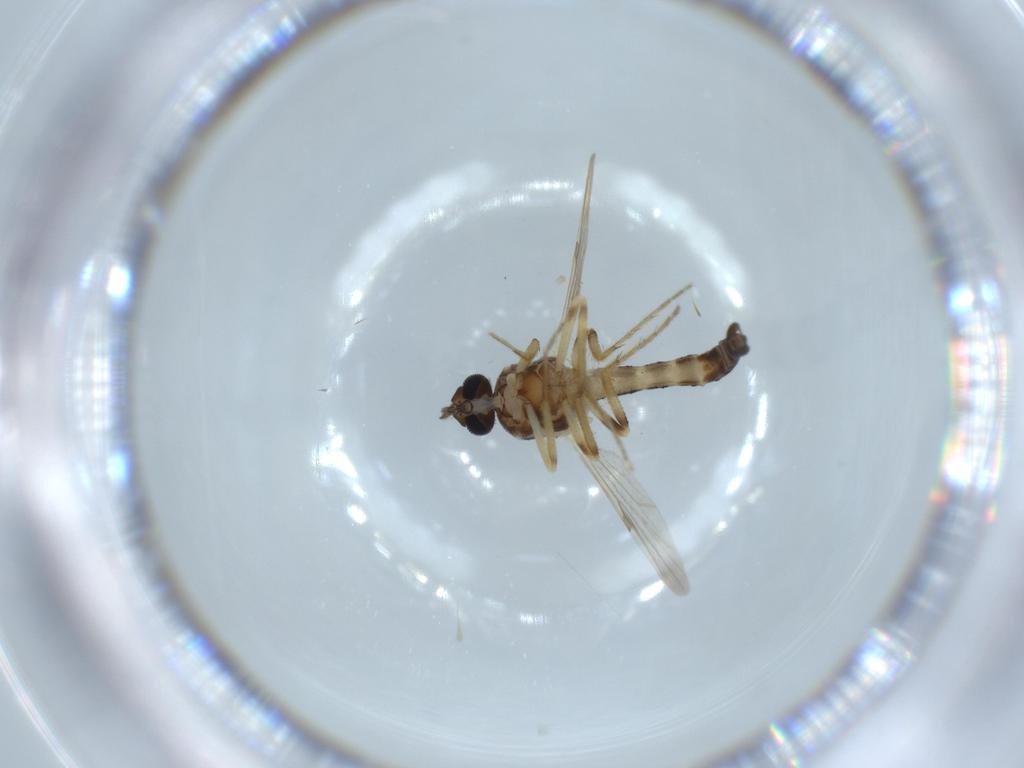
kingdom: Animalia
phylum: Arthropoda
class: Insecta
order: Diptera
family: Ceratopogonidae
